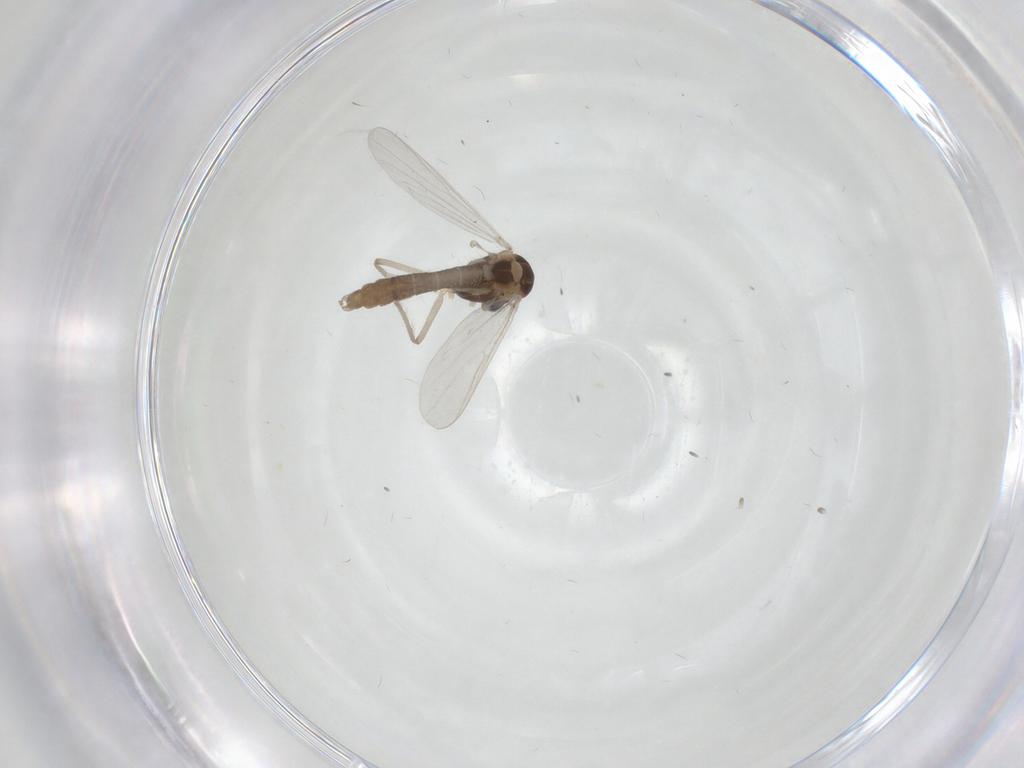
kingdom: Animalia
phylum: Arthropoda
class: Insecta
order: Diptera
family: Chironomidae
